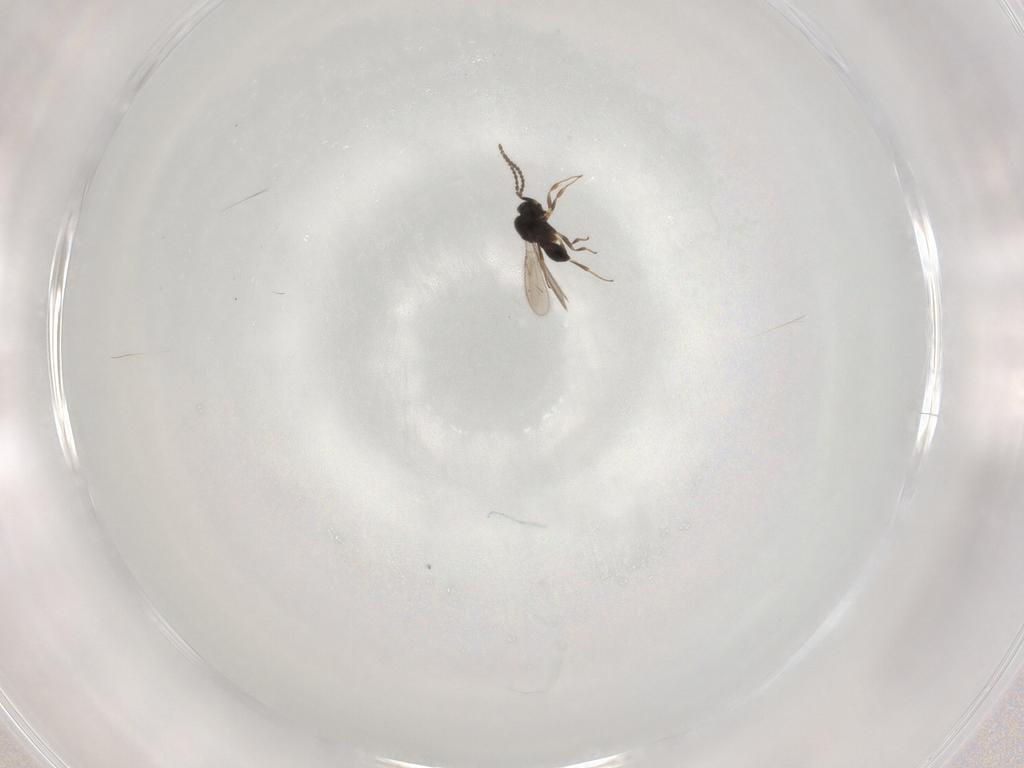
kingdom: Animalia
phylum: Arthropoda
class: Insecta
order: Hymenoptera
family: Scelionidae
